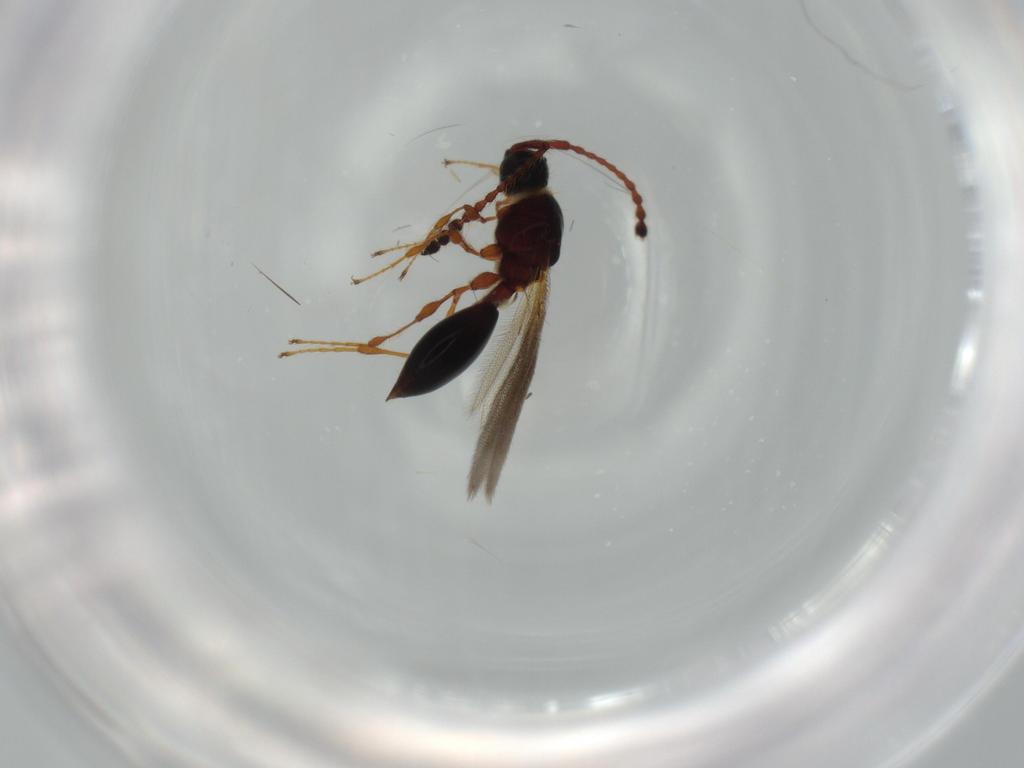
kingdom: Animalia
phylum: Arthropoda
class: Insecta
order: Hymenoptera
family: Diapriidae
